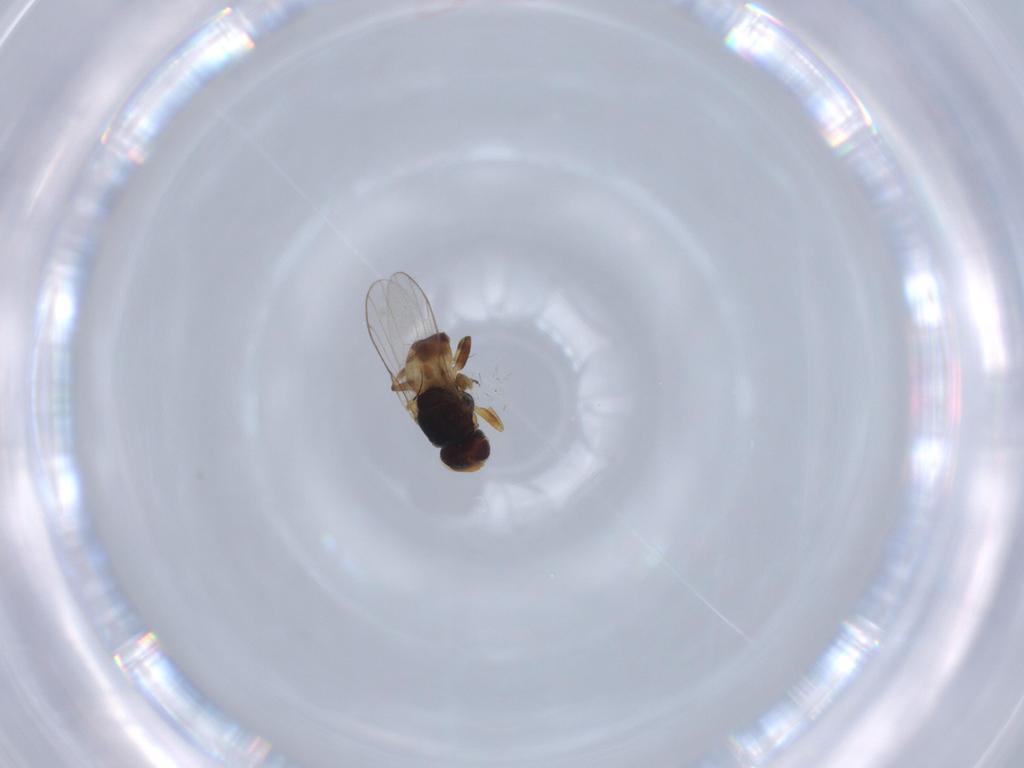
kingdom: Animalia
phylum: Arthropoda
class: Insecta
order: Diptera
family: Chloropidae
